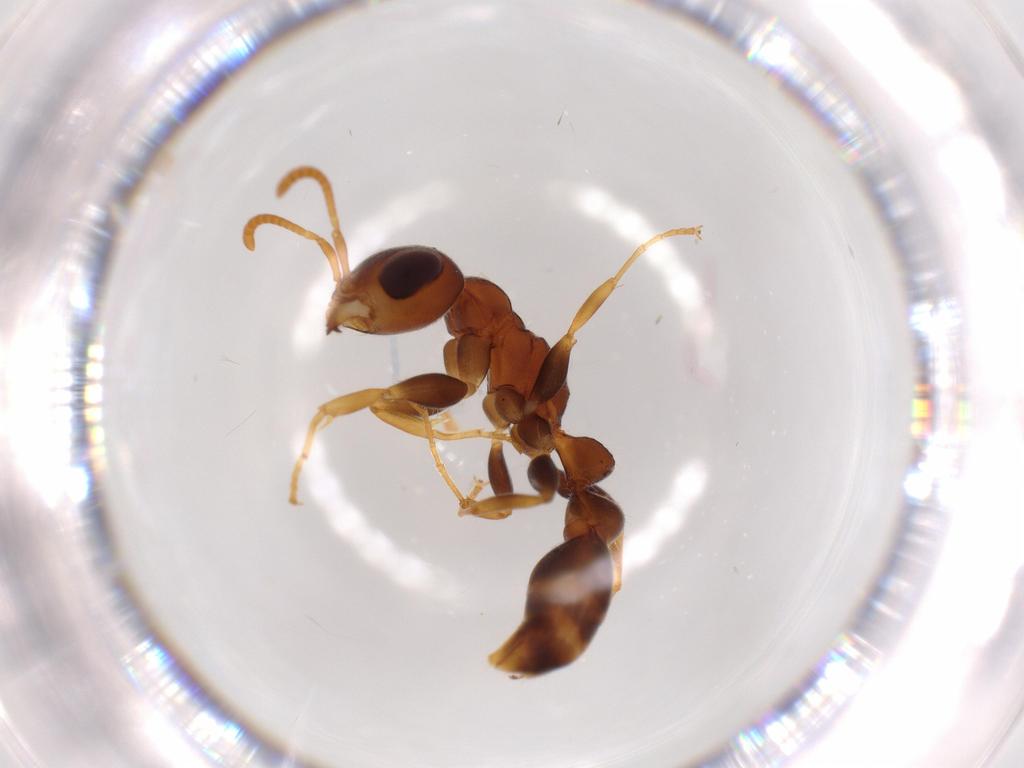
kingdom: Animalia
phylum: Arthropoda
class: Insecta
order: Hymenoptera
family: Formicidae
